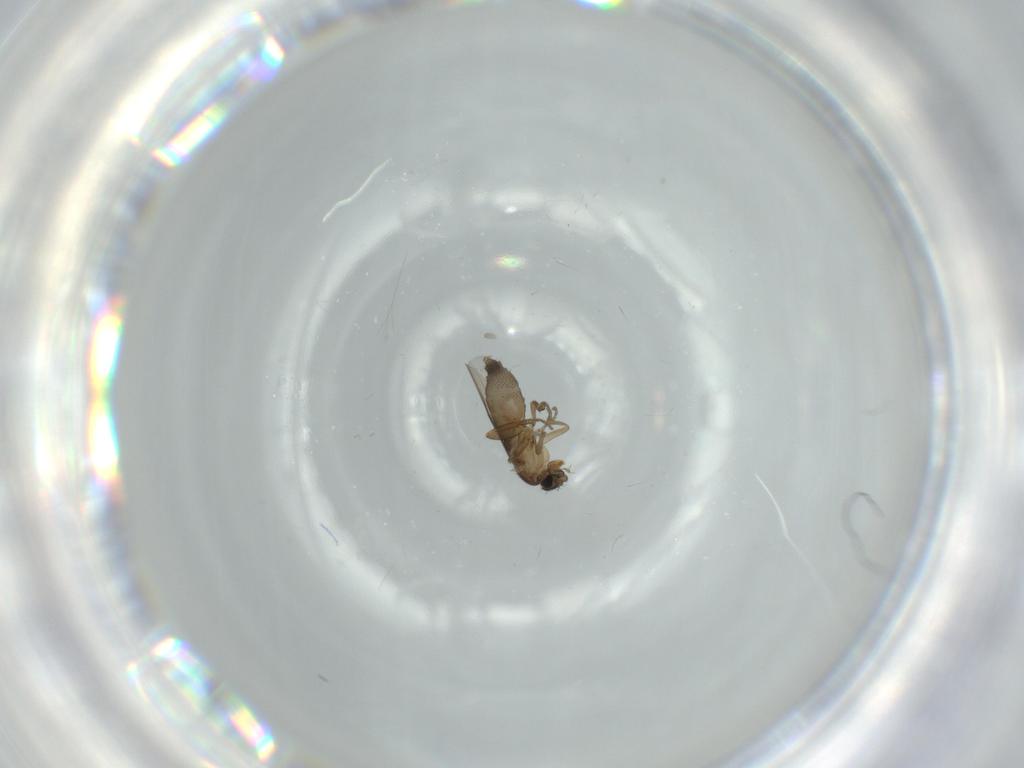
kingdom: Animalia
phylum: Arthropoda
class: Insecta
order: Diptera
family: Phoridae
